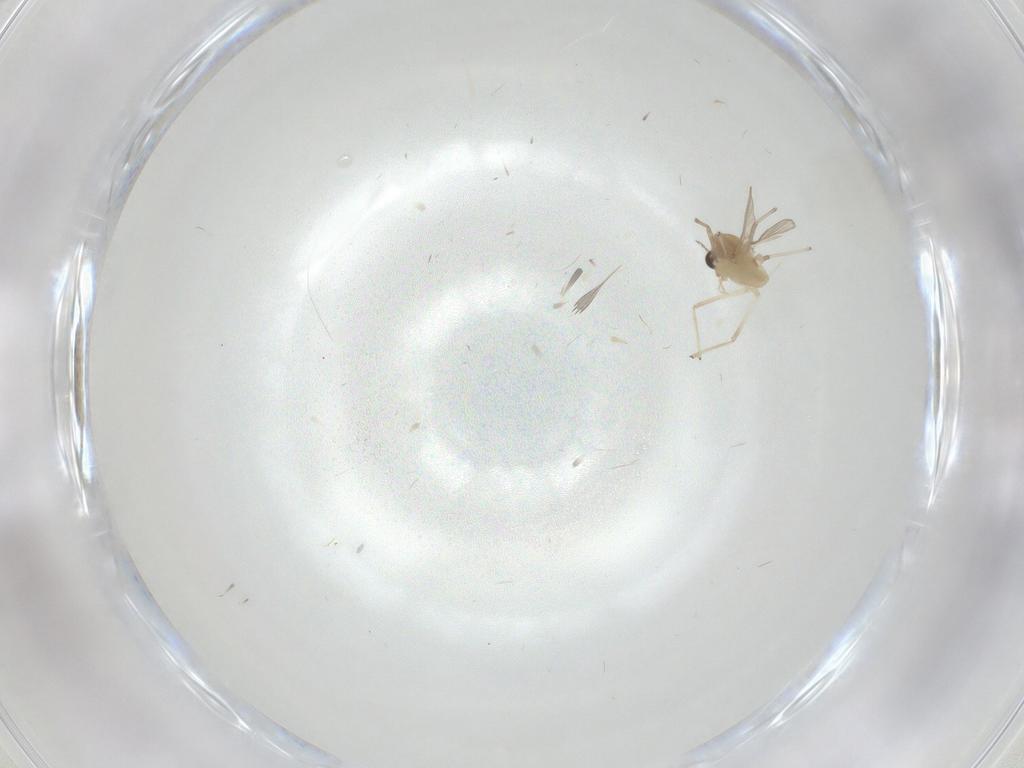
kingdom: Animalia
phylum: Arthropoda
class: Insecta
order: Diptera
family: Chironomidae
